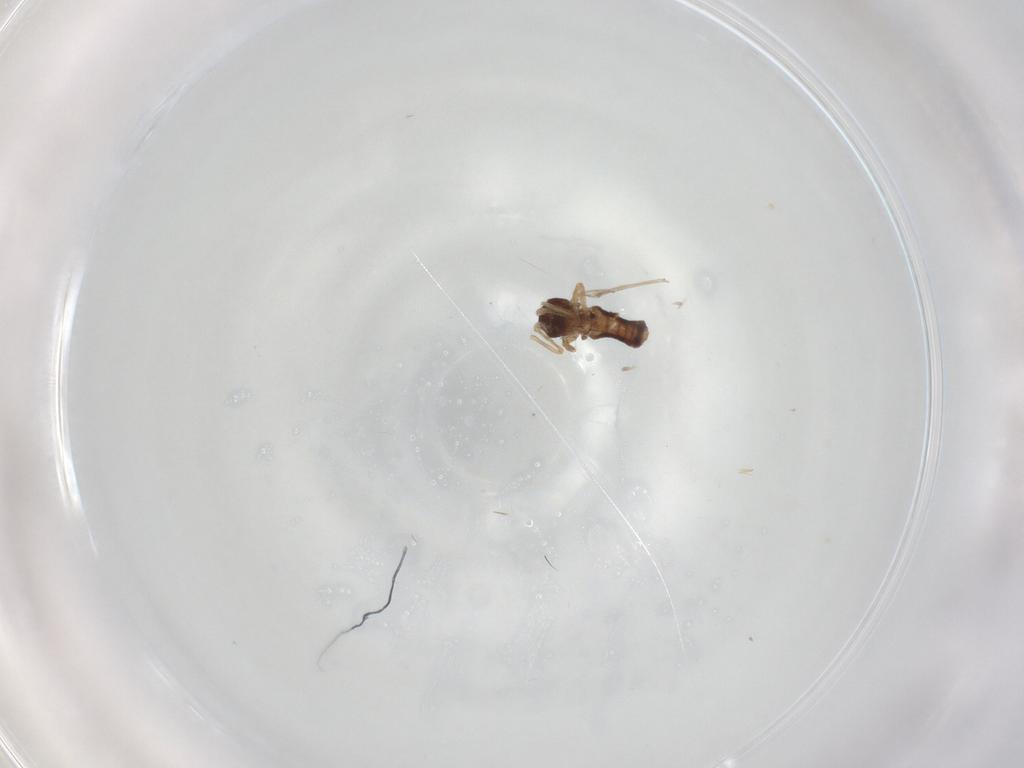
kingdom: Animalia
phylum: Arthropoda
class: Insecta
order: Diptera
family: Ceratopogonidae
